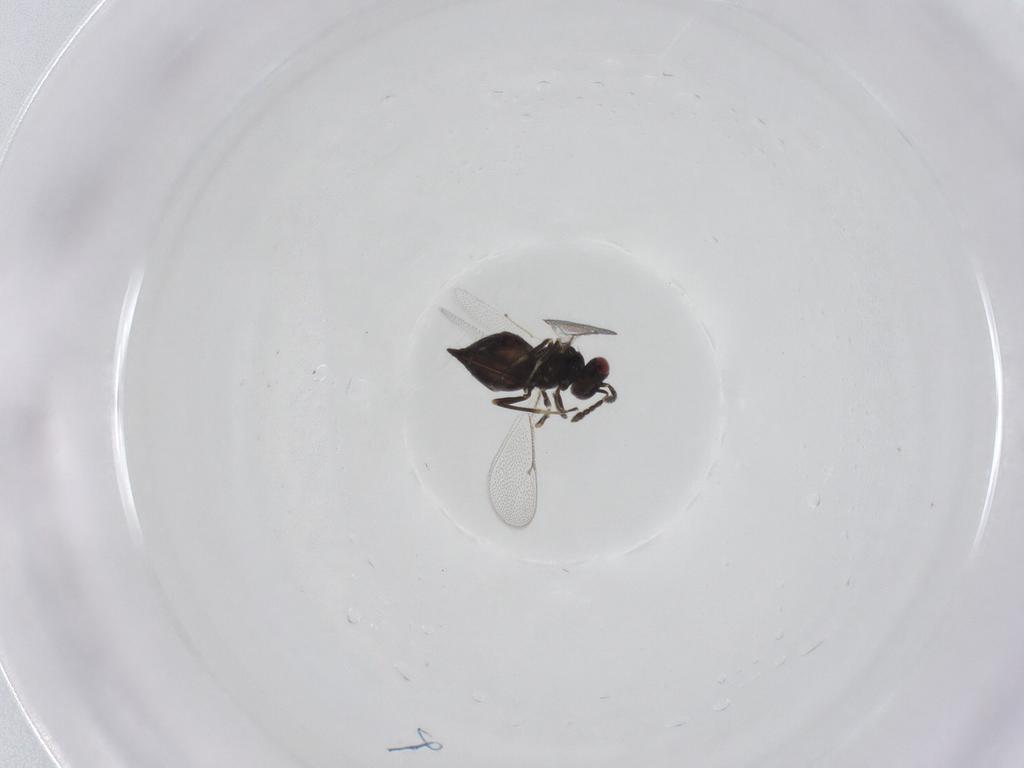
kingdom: Animalia
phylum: Arthropoda
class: Insecta
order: Hymenoptera
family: Eulophidae
